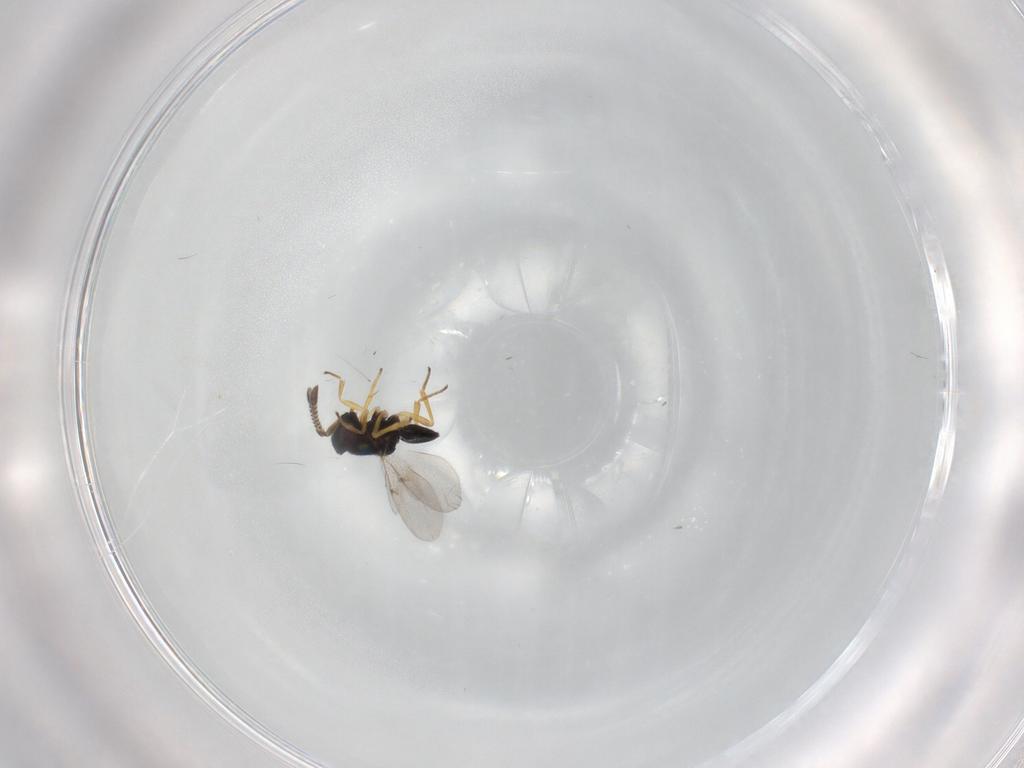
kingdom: Animalia
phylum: Arthropoda
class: Insecta
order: Hymenoptera
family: Encyrtidae
